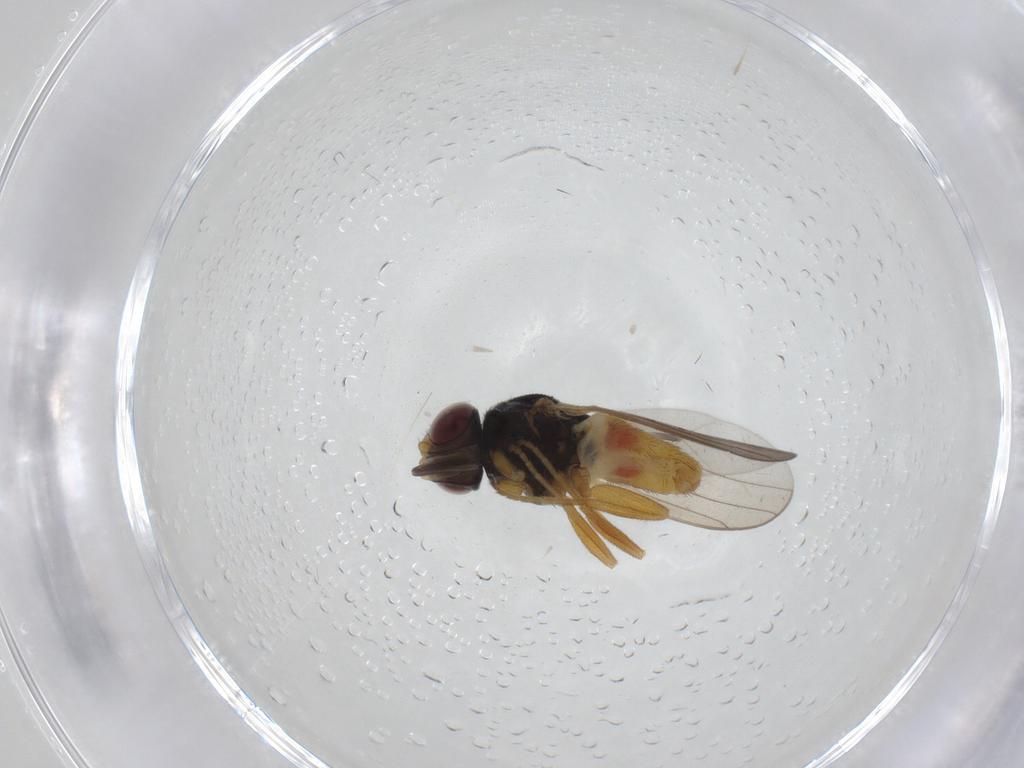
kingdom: Animalia
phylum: Arthropoda
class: Insecta
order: Diptera
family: Chloropidae
